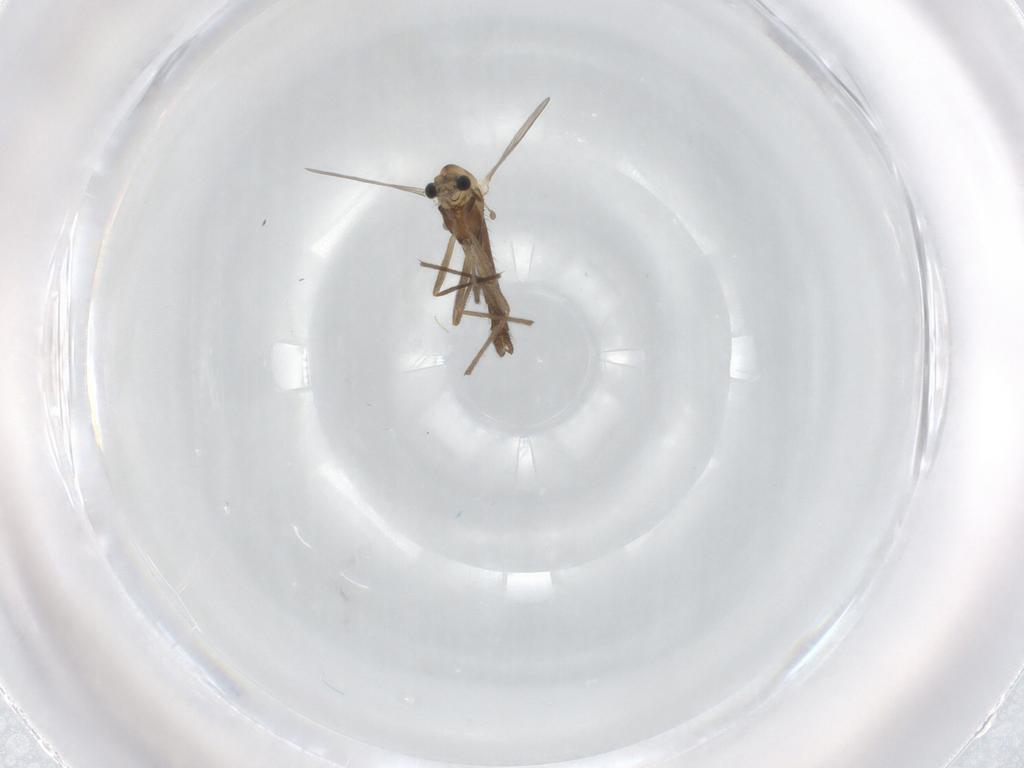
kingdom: Animalia
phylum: Arthropoda
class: Insecta
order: Diptera
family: Chironomidae
